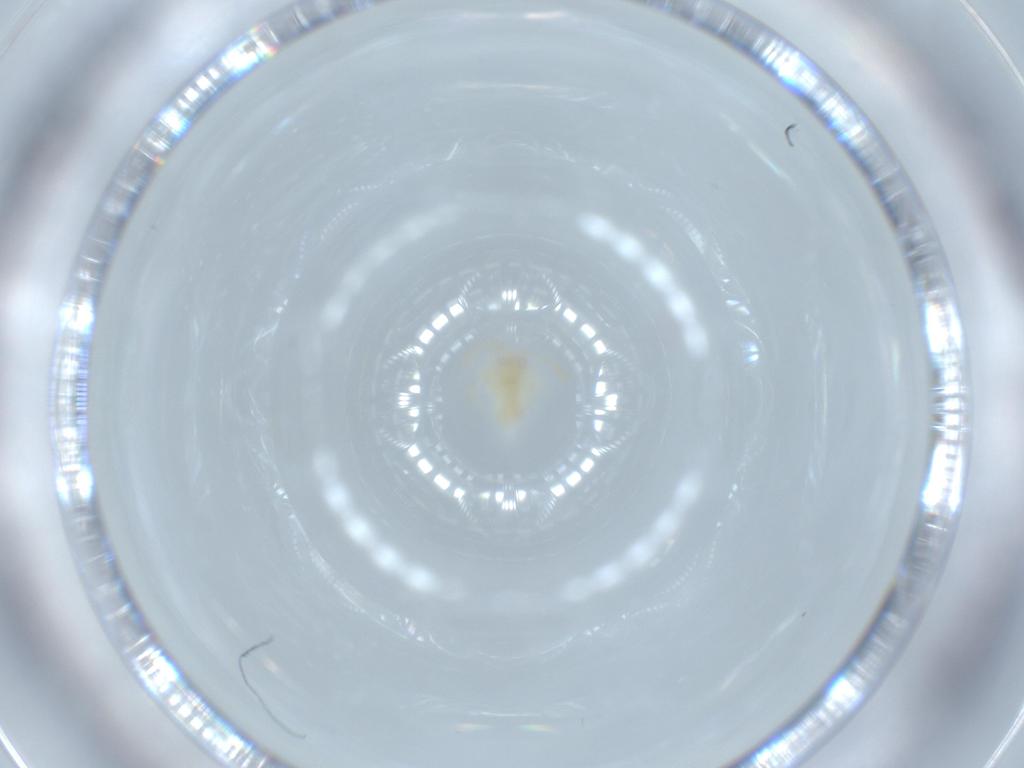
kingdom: Animalia
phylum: Arthropoda
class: Insecta
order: Hemiptera
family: Miridae
